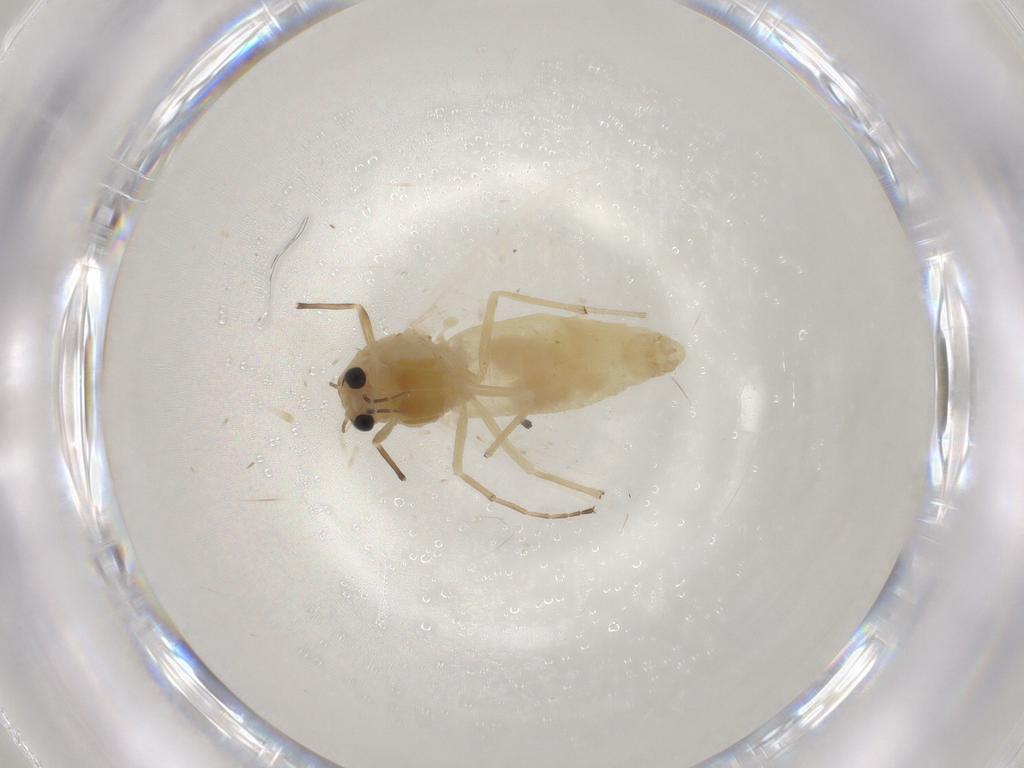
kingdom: Animalia
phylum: Arthropoda
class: Insecta
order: Diptera
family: Chironomidae
